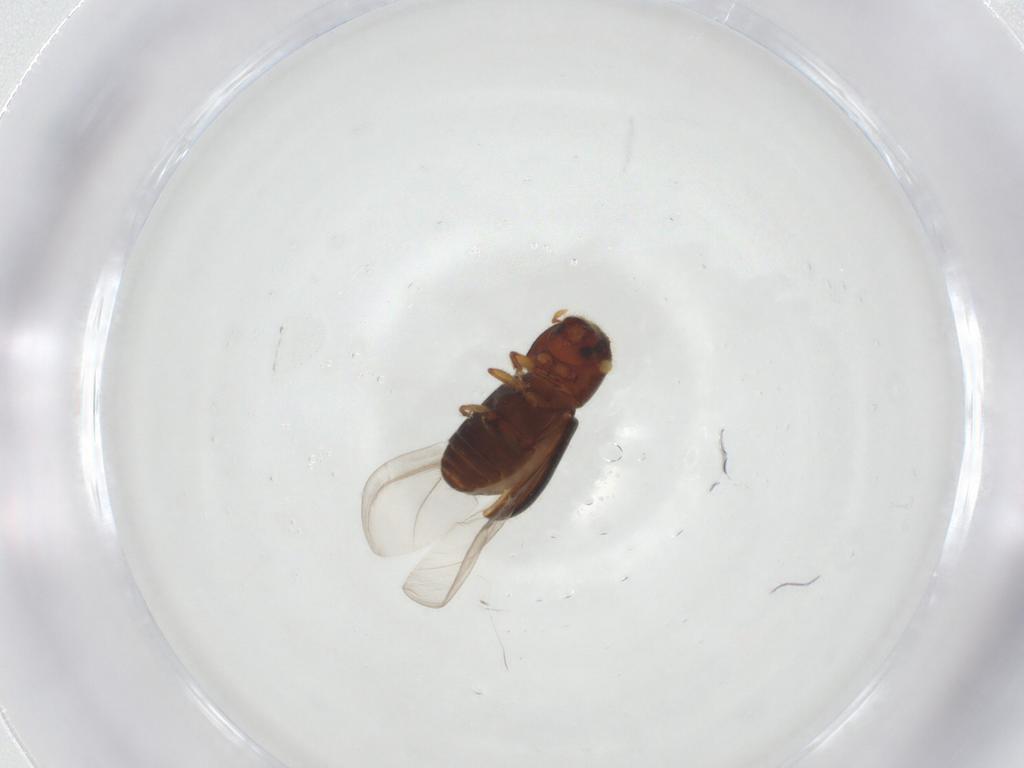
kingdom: Animalia
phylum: Arthropoda
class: Insecta
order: Coleoptera
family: Curculionidae
